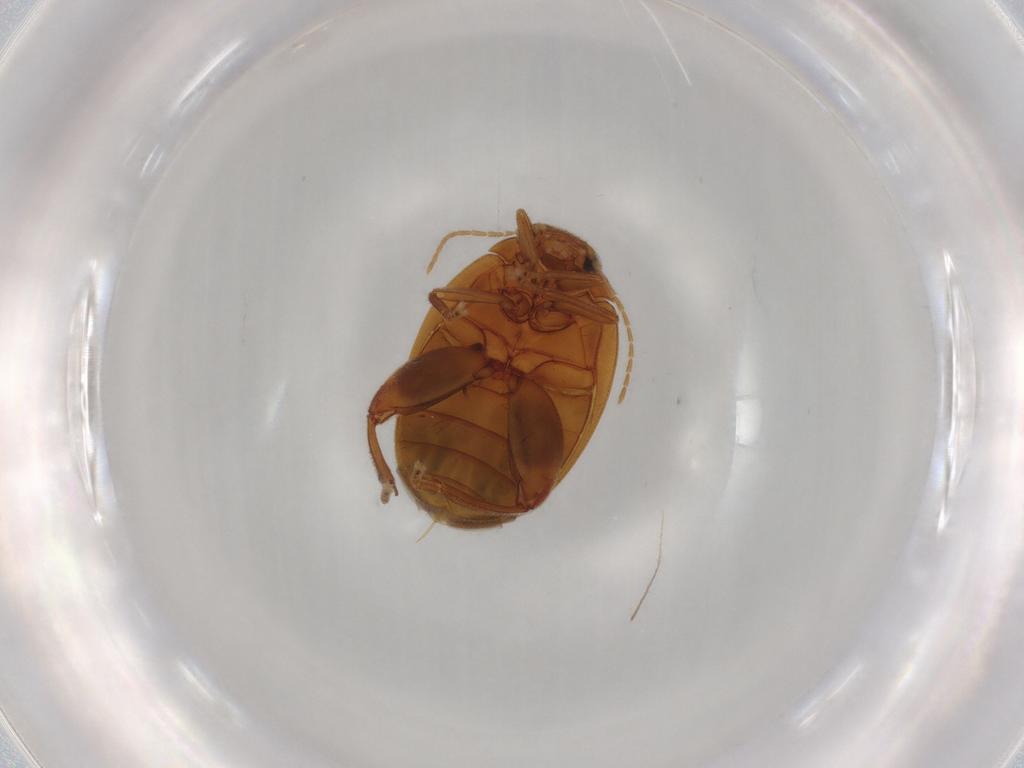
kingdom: Animalia
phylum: Arthropoda
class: Insecta
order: Coleoptera
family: Scirtidae
